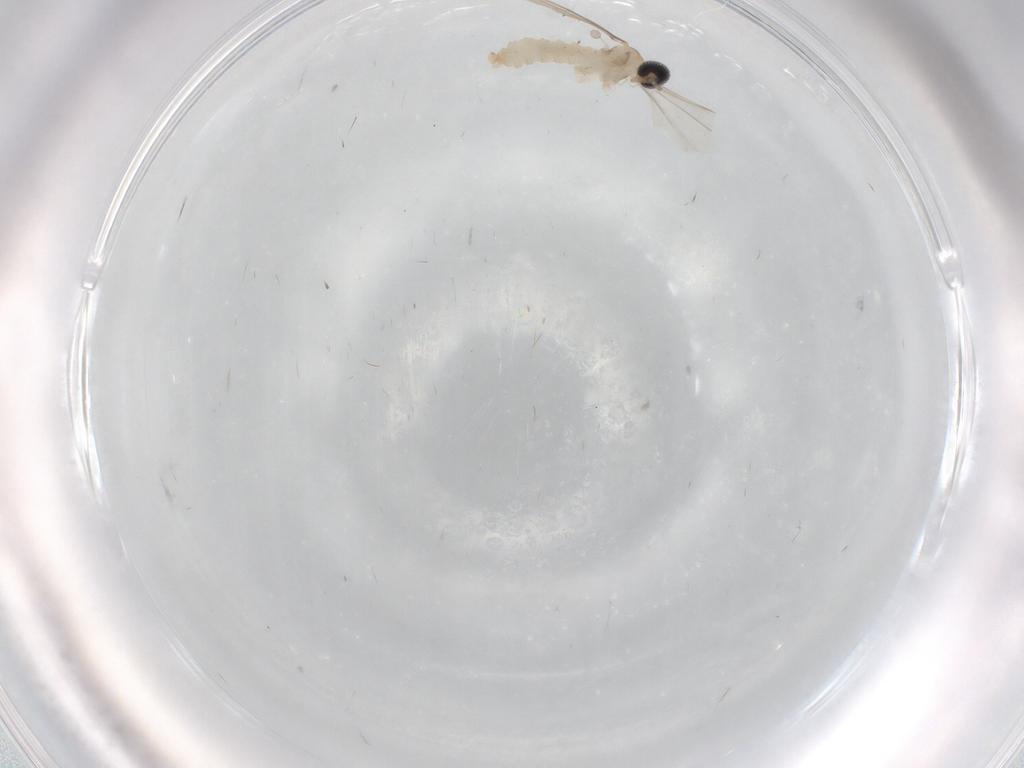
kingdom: Animalia
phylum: Arthropoda
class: Insecta
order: Diptera
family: Cecidomyiidae
